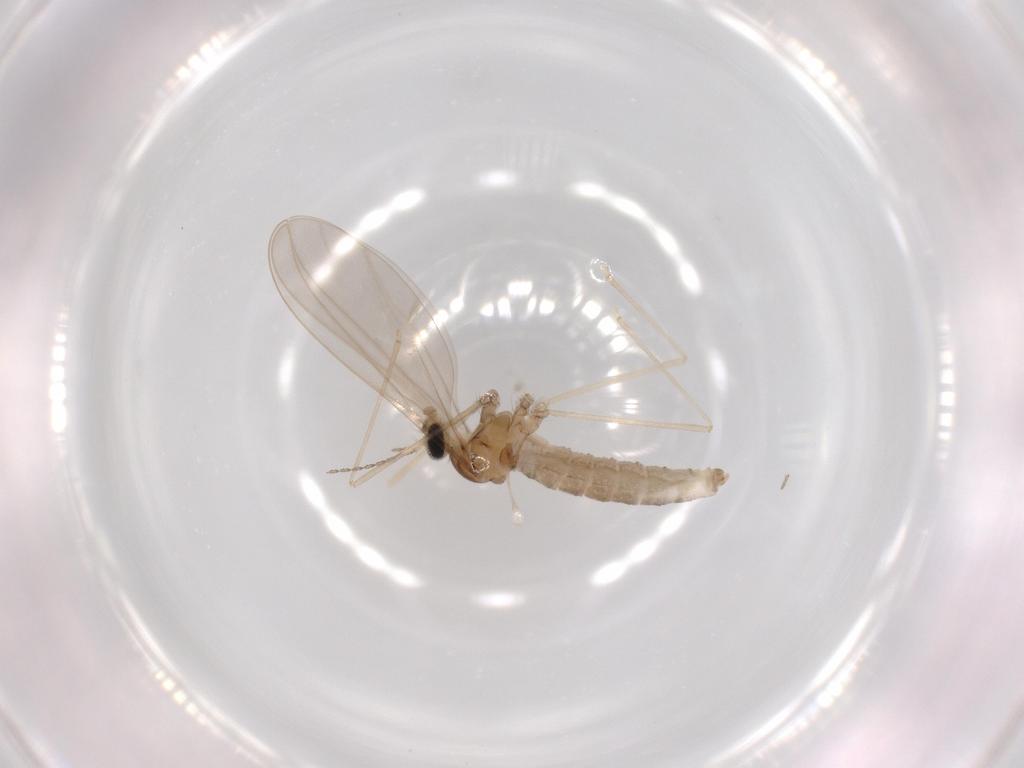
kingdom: Animalia
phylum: Arthropoda
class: Insecta
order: Diptera
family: Cecidomyiidae
